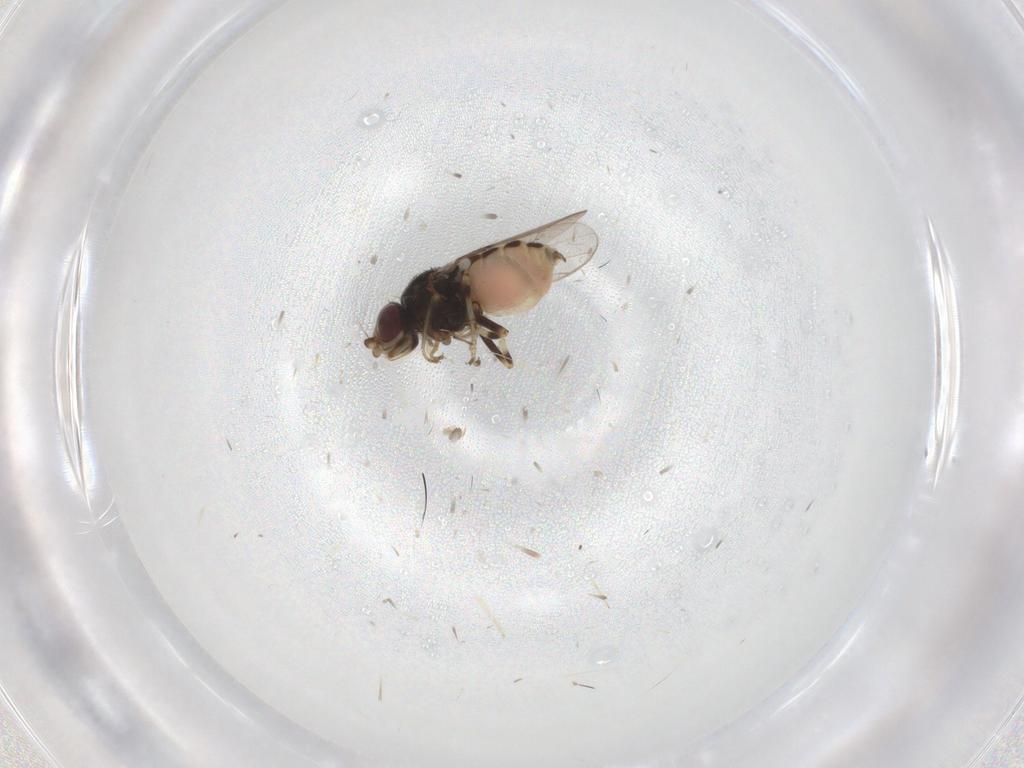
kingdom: Animalia
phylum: Arthropoda
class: Insecta
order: Diptera
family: Chloropidae
